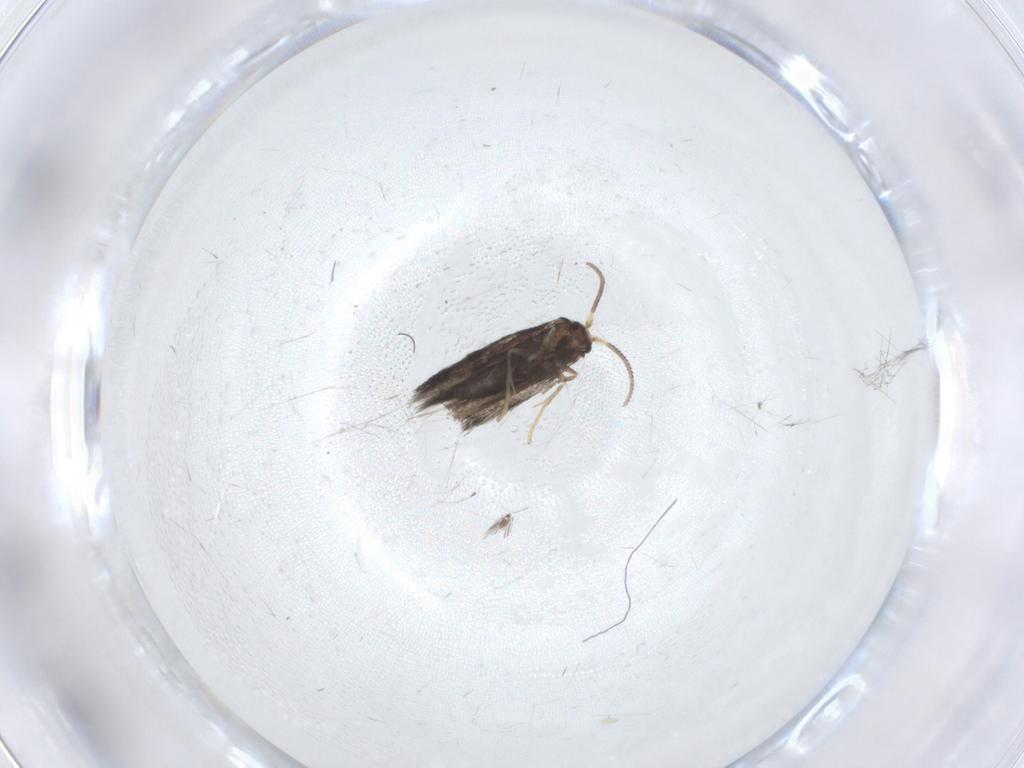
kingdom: Animalia
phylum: Arthropoda
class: Insecta
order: Lepidoptera
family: Nepticulidae
